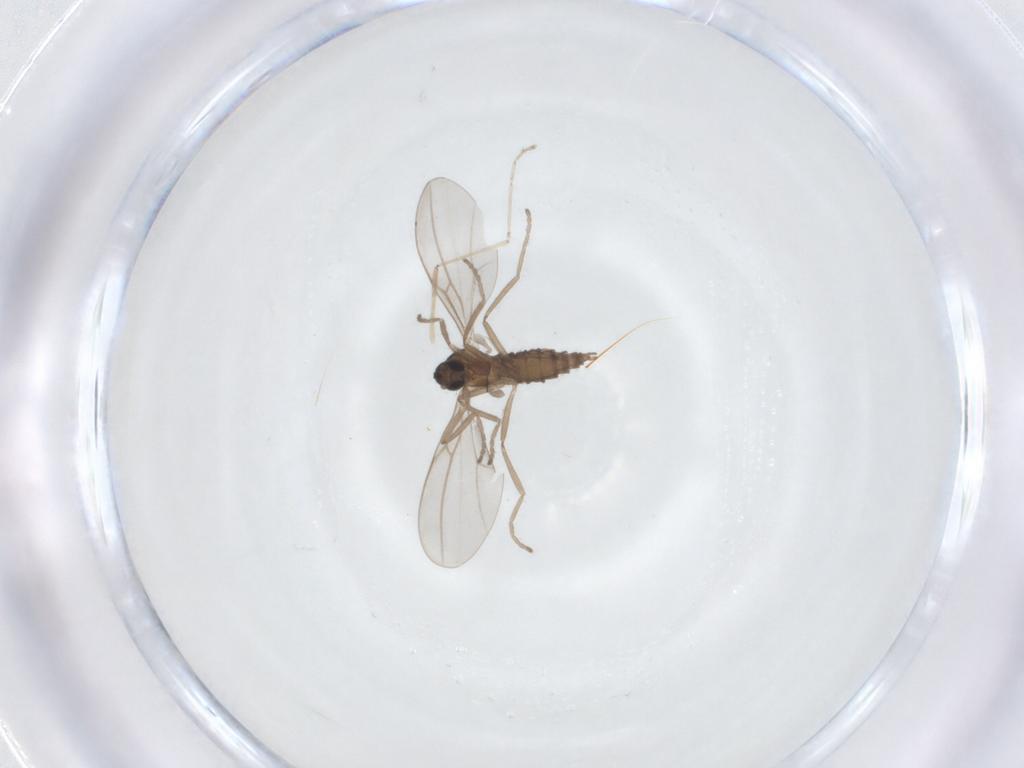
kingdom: Animalia
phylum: Arthropoda
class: Insecta
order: Diptera
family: Cecidomyiidae
